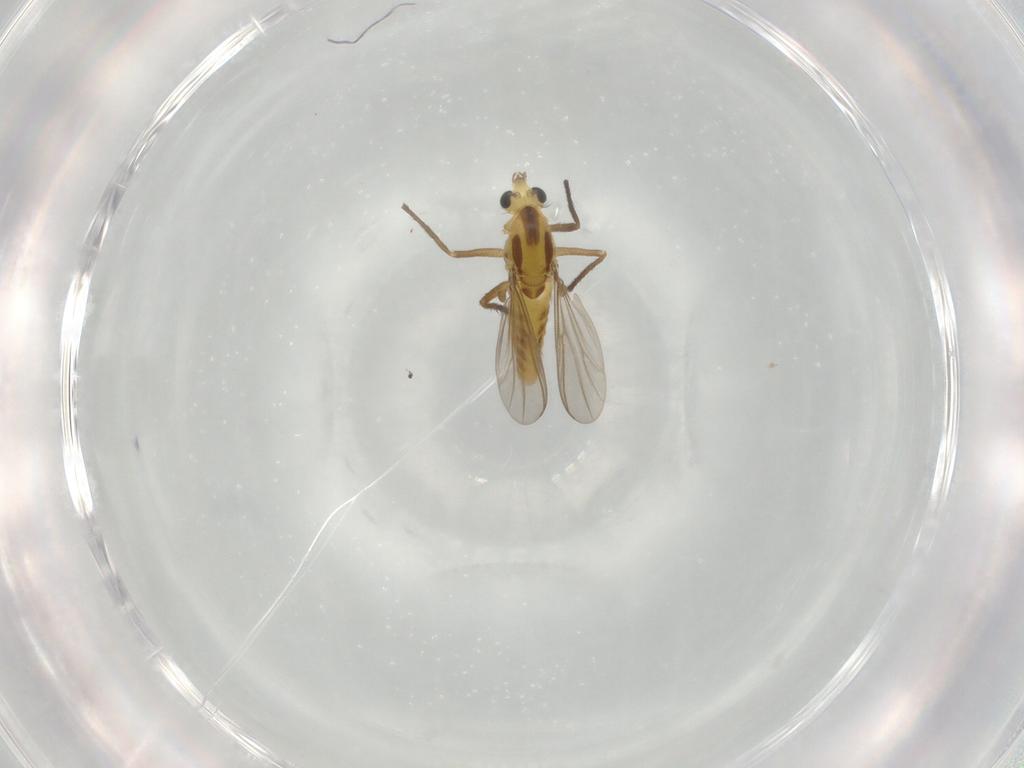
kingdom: Animalia
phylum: Arthropoda
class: Insecta
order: Diptera
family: Chironomidae
